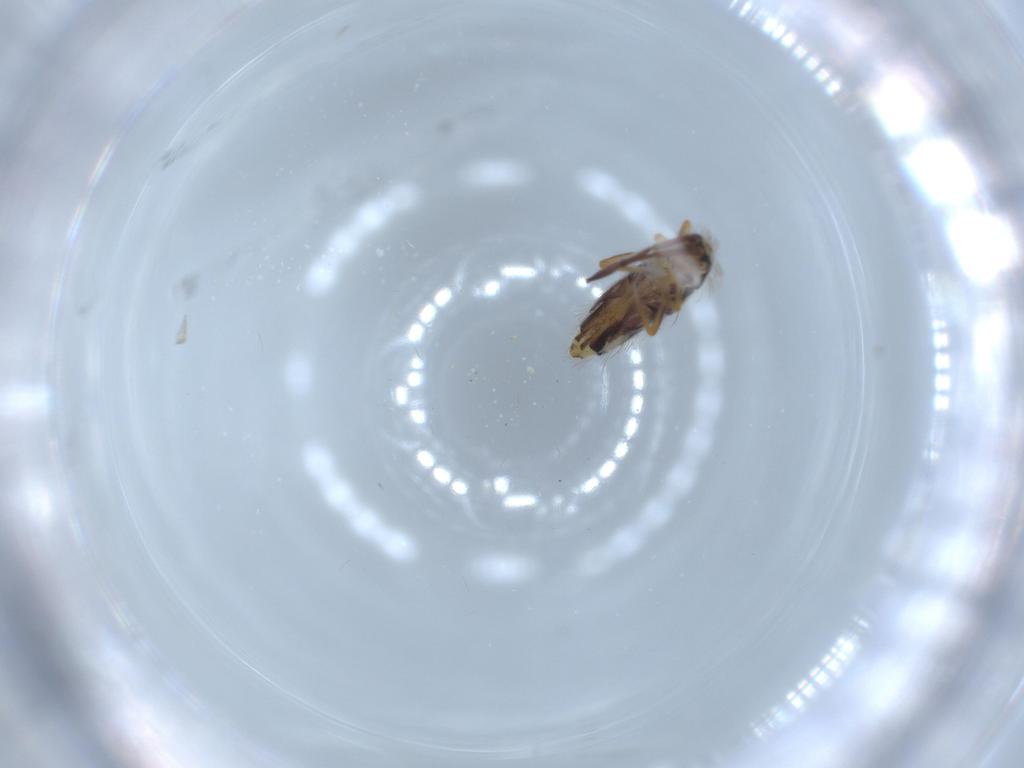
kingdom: Animalia
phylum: Arthropoda
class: Collembola
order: Entomobryomorpha
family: Entomobryidae
